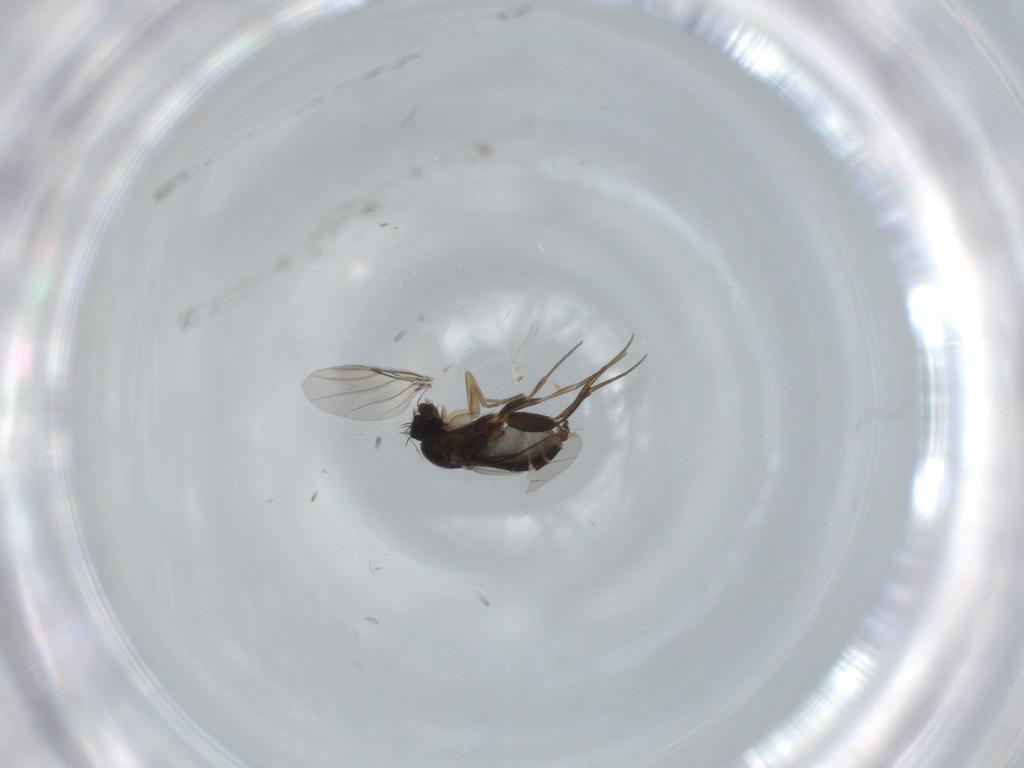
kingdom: Animalia
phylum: Arthropoda
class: Insecta
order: Diptera
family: Phoridae
